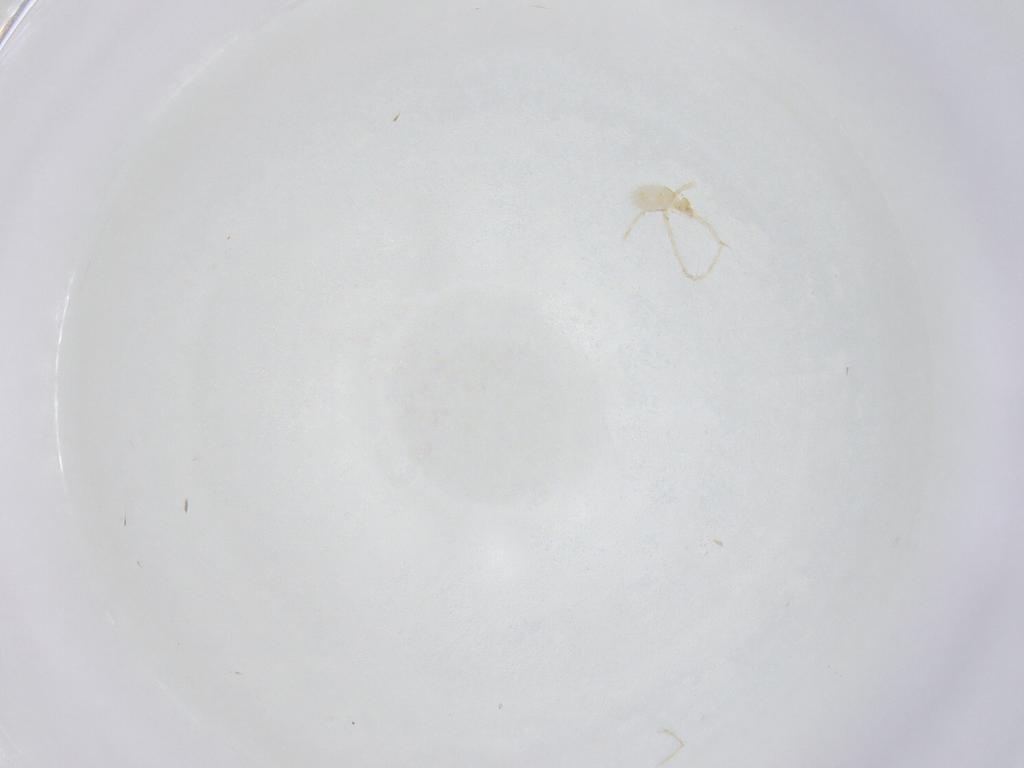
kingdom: Animalia
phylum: Arthropoda
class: Arachnida
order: Trombidiformes
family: Erythraeidae
